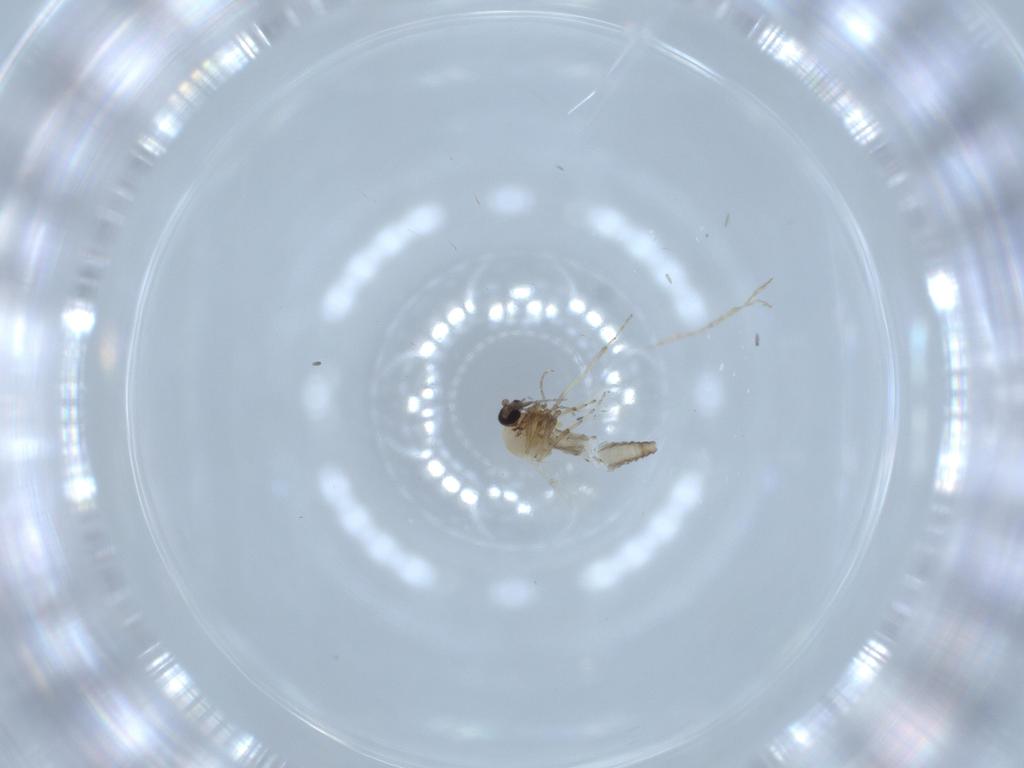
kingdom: Animalia
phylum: Arthropoda
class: Insecta
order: Diptera
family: Ceratopogonidae
